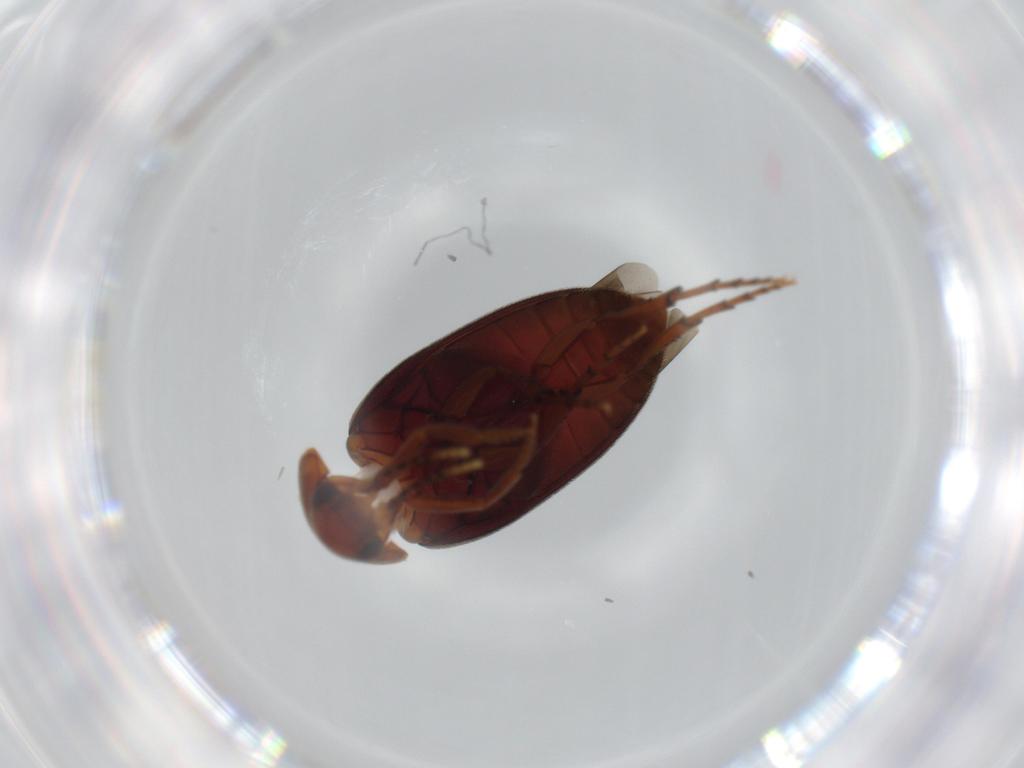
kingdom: Animalia
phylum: Arthropoda
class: Insecta
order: Coleoptera
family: Eucinetidae
